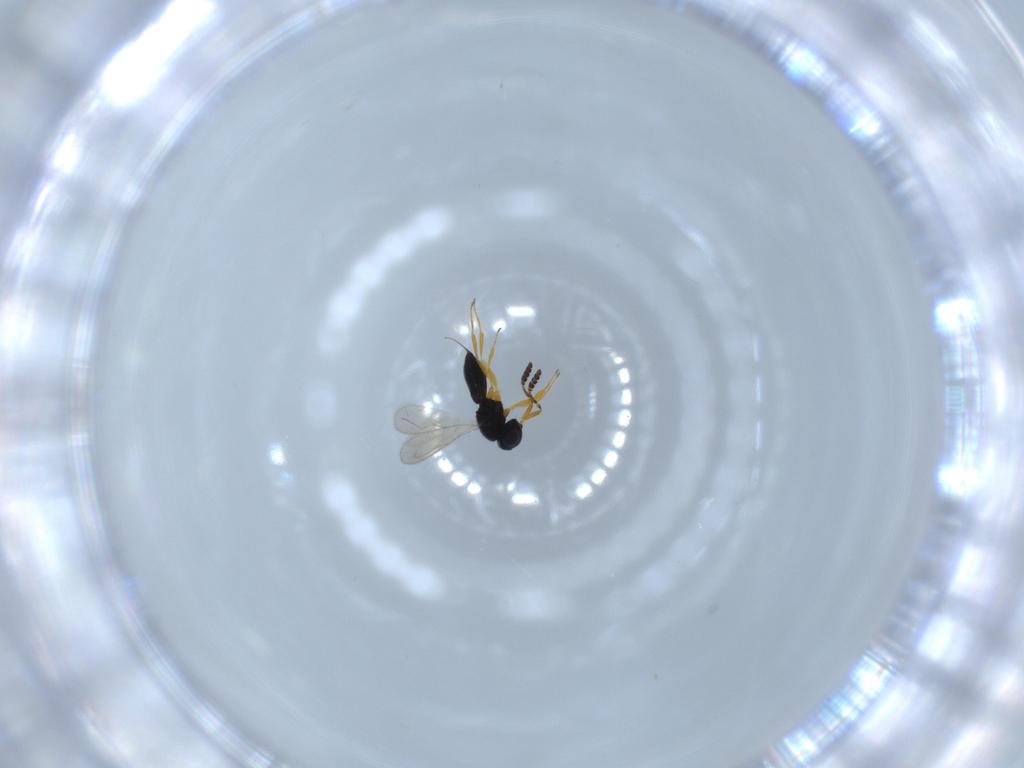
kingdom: Animalia
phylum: Arthropoda
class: Insecta
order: Hymenoptera
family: Scelionidae
